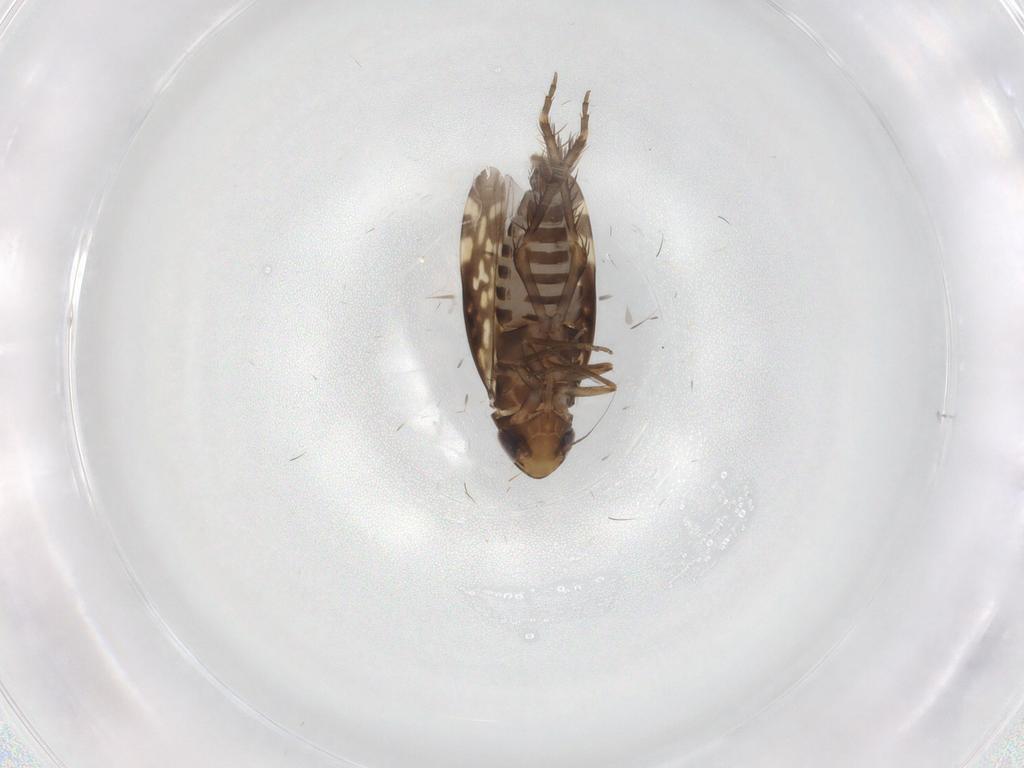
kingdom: Animalia
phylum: Arthropoda
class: Insecta
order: Hemiptera
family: Cicadellidae
